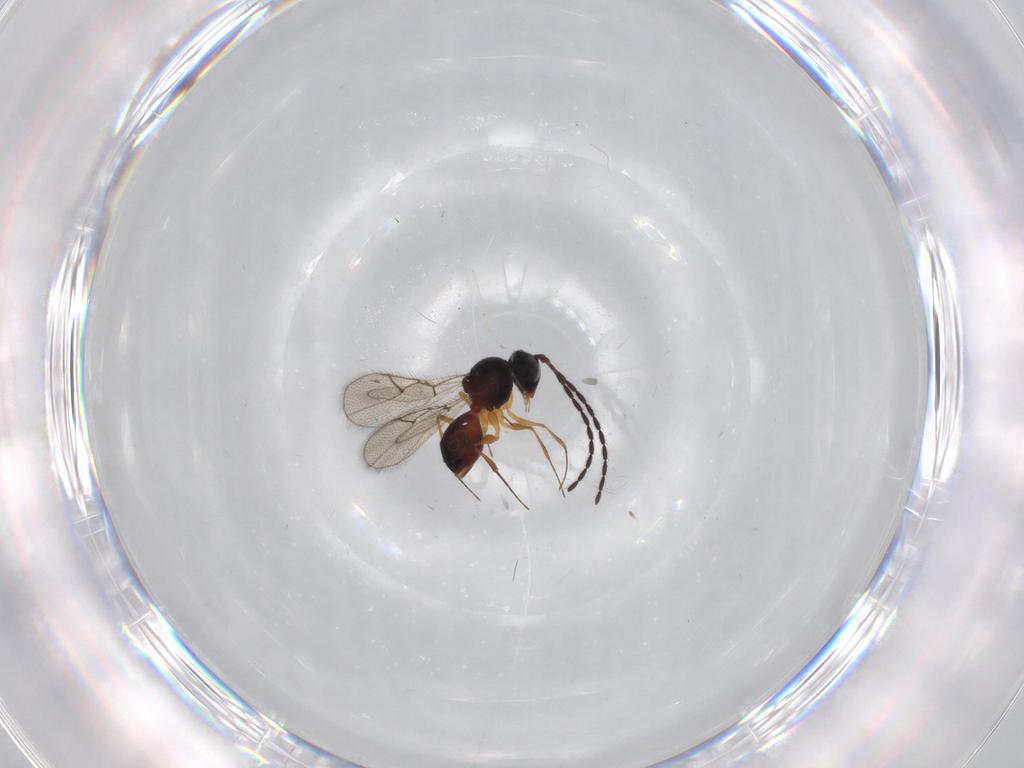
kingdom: Animalia
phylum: Arthropoda
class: Insecta
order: Hymenoptera
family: Figitidae
